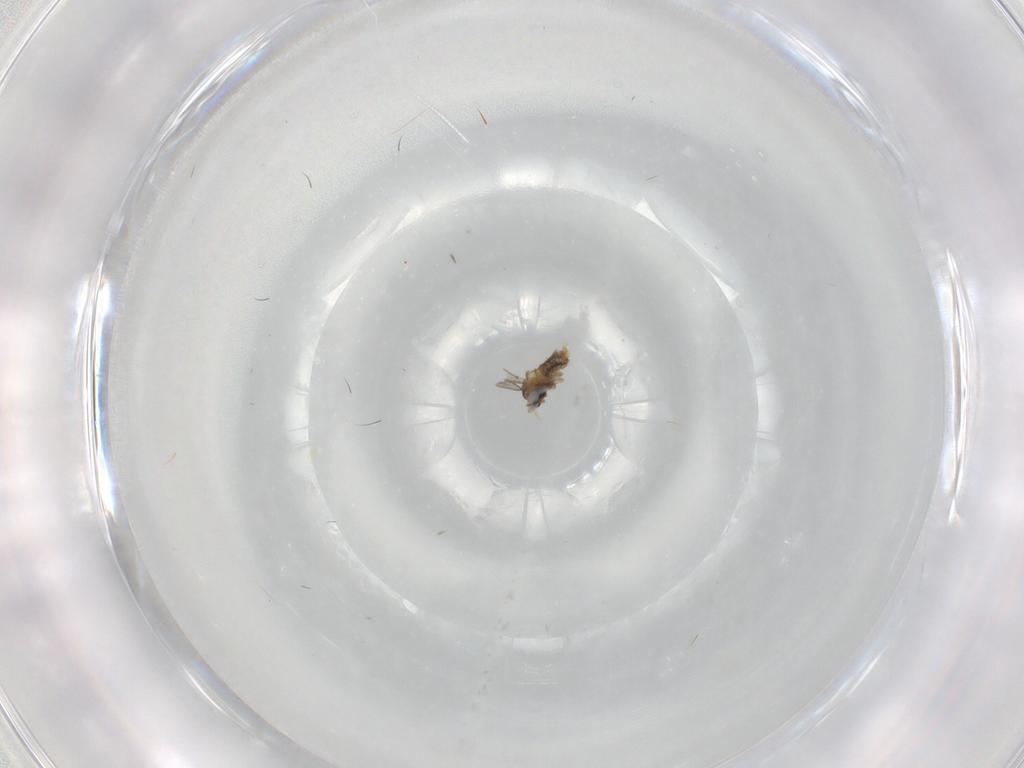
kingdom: Animalia
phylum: Arthropoda
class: Insecta
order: Diptera
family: Cecidomyiidae
